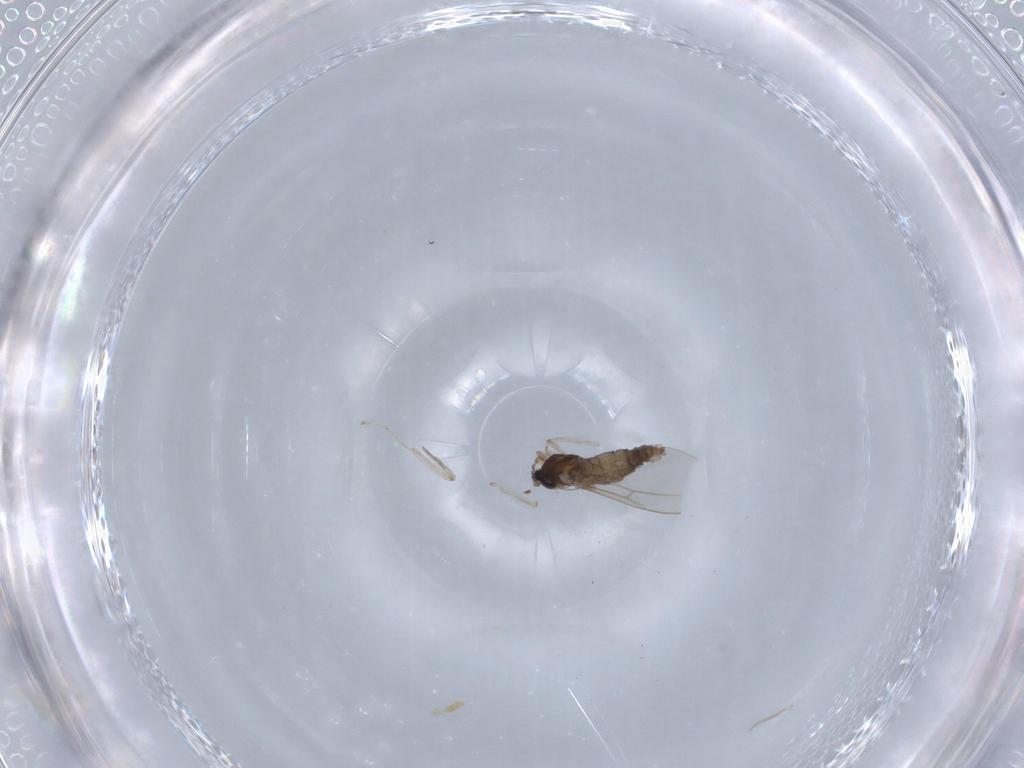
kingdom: Animalia
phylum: Arthropoda
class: Insecta
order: Diptera
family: Cecidomyiidae
